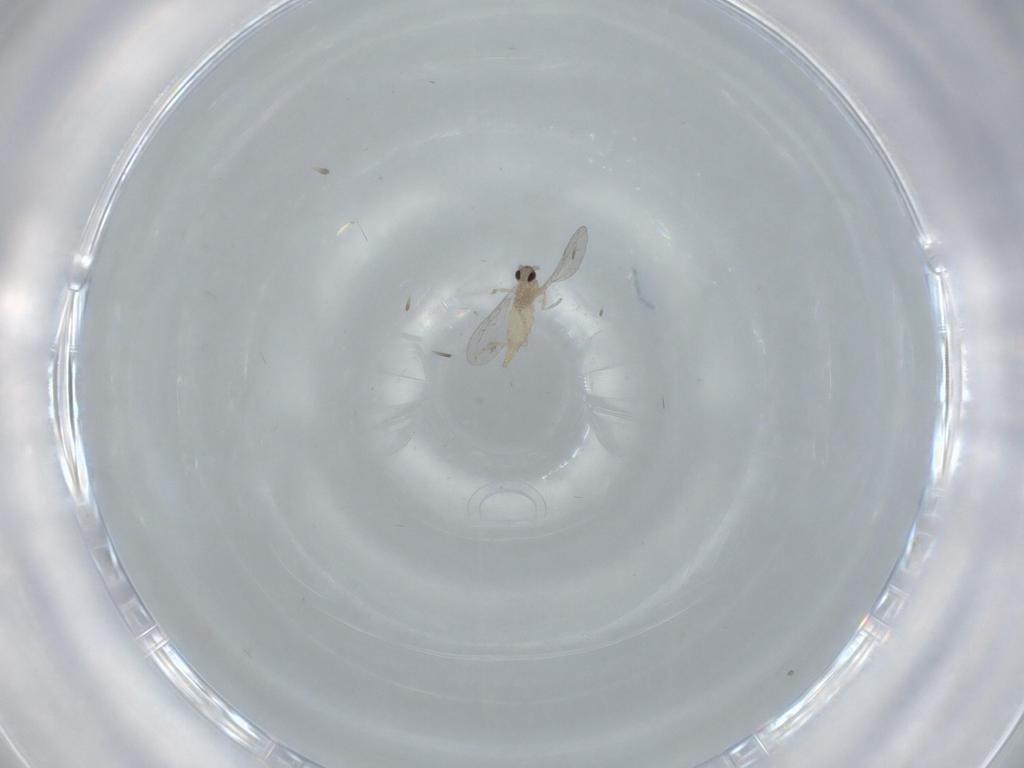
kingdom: Animalia
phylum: Arthropoda
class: Insecta
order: Diptera
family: Cecidomyiidae
